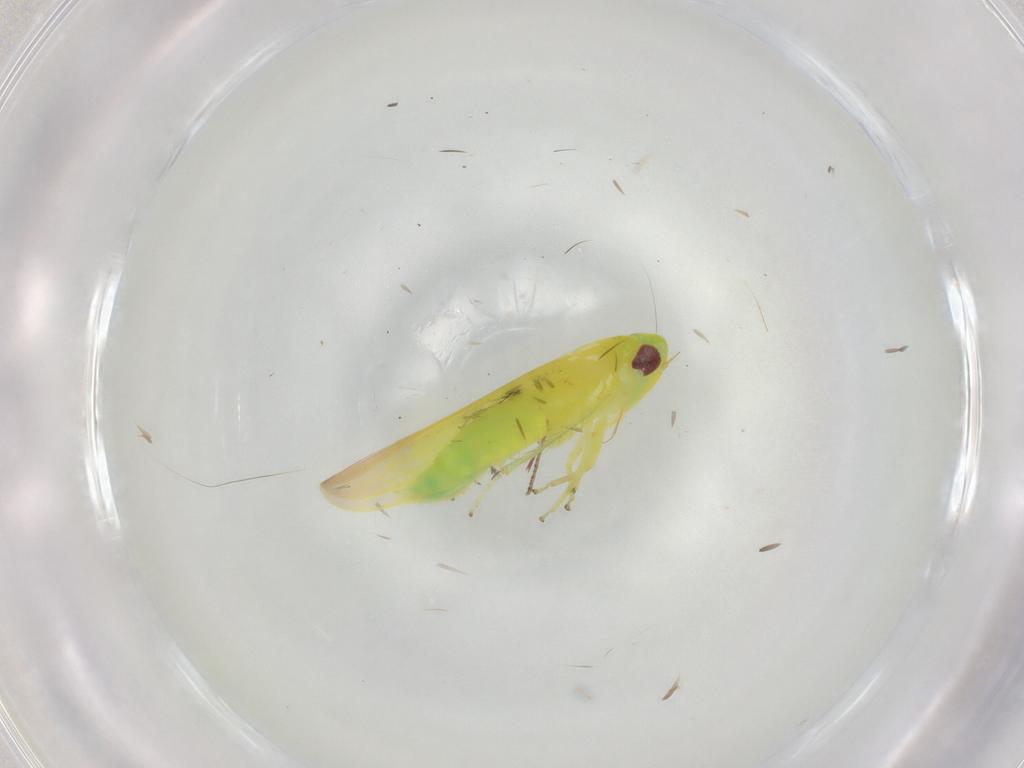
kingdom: Animalia
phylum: Arthropoda
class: Insecta
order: Hemiptera
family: Cicadellidae
